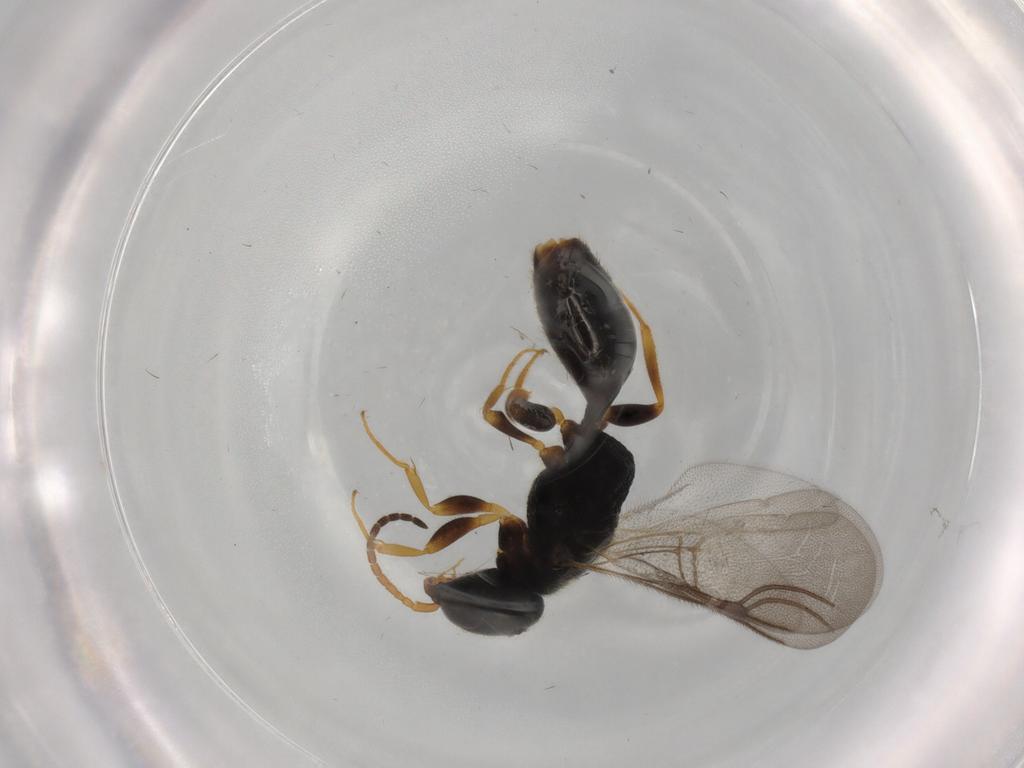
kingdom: Animalia
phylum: Arthropoda
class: Insecta
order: Hymenoptera
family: Bethylidae
